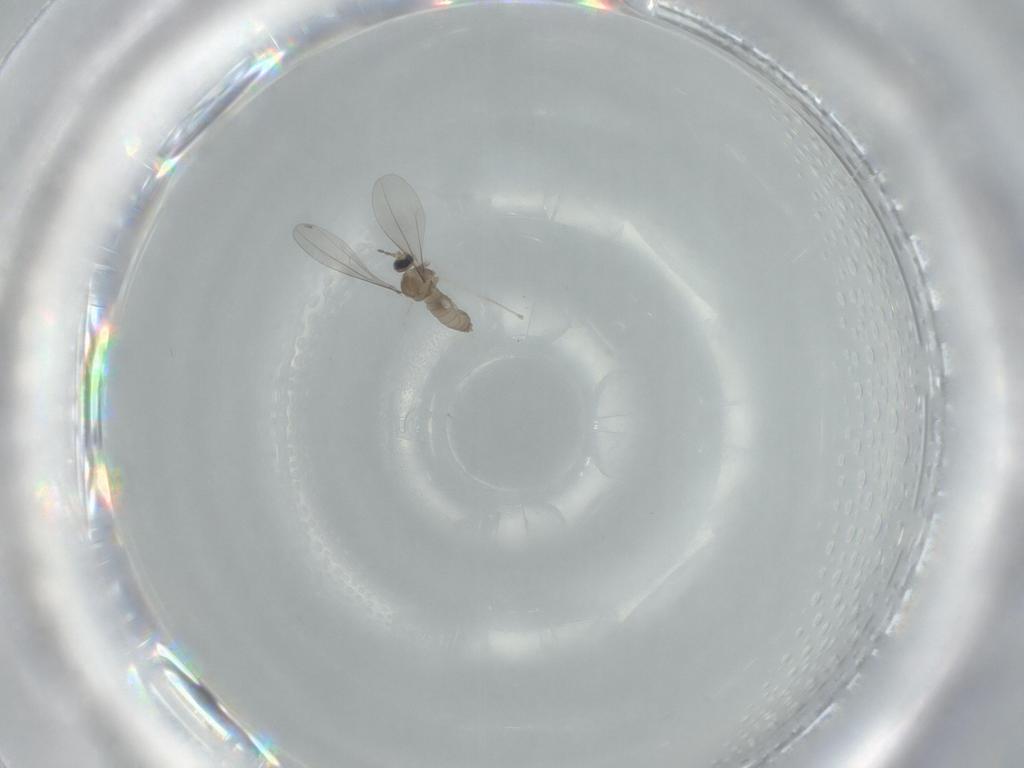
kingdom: Animalia
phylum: Arthropoda
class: Insecta
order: Diptera
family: Cecidomyiidae
